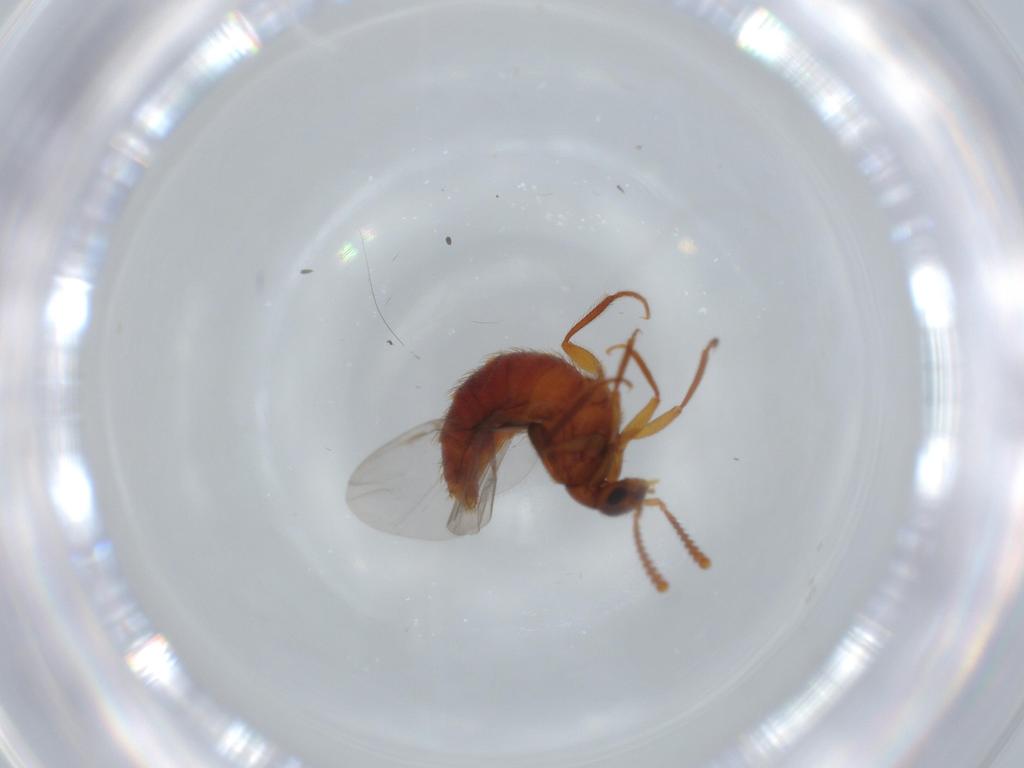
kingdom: Animalia
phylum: Arthropoda
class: Insecta
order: Coleoptera
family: Staphylinidae
